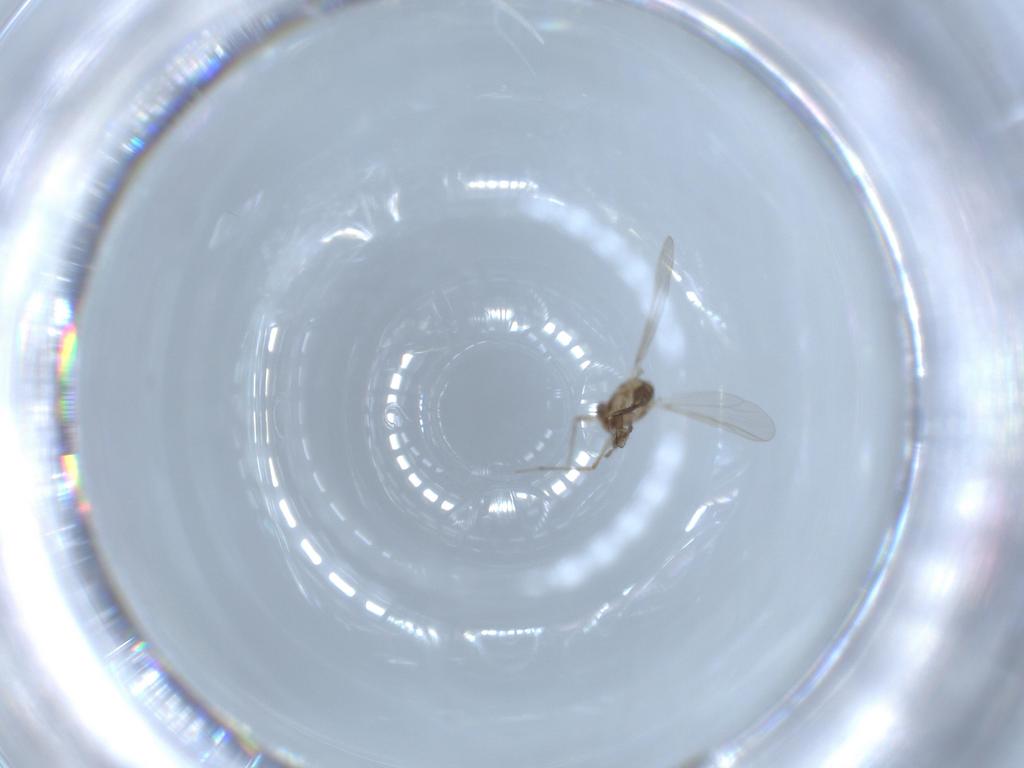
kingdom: Animalia
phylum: Arthropoda
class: Insecta
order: Diptera
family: Chironomidae
